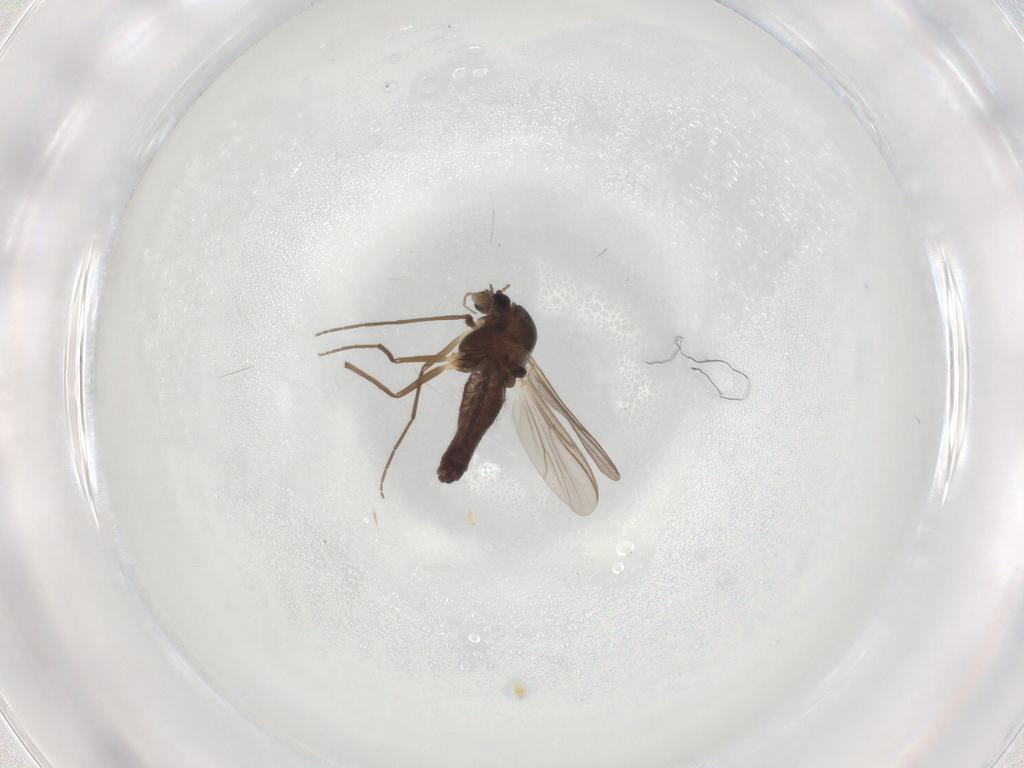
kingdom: Animalia
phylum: Arthropoda
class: Insecta
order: Diptera
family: Chironomidae
